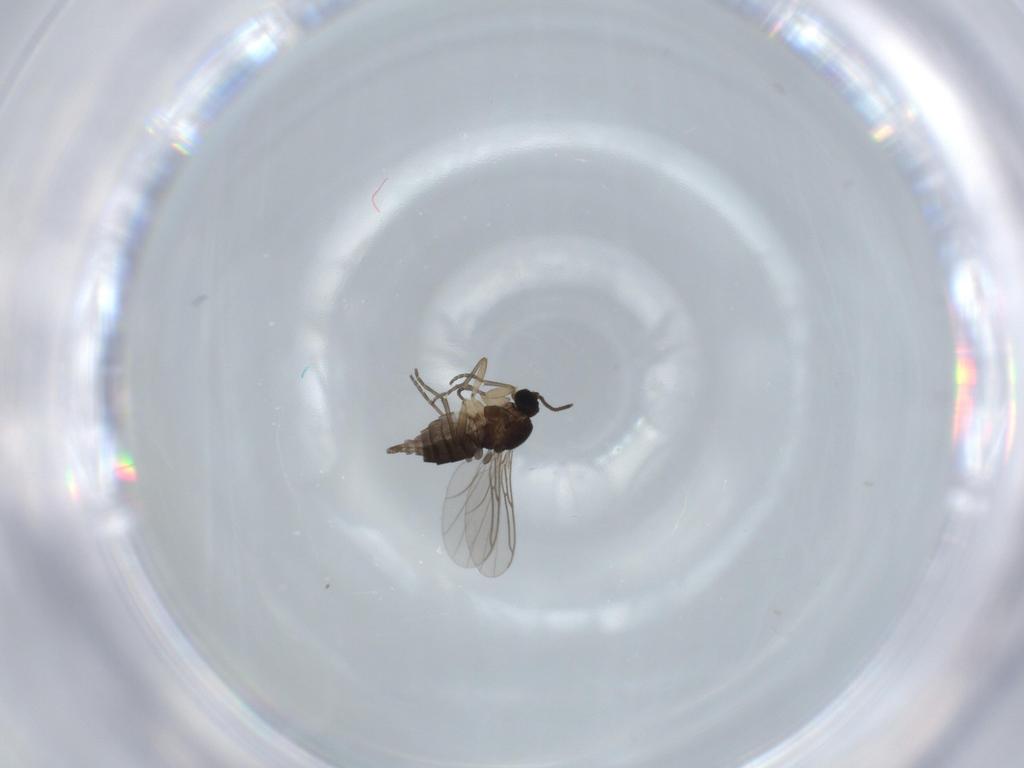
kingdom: Animalia
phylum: Arthropoda
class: Insecta
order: Diptera
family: Sciaridae
